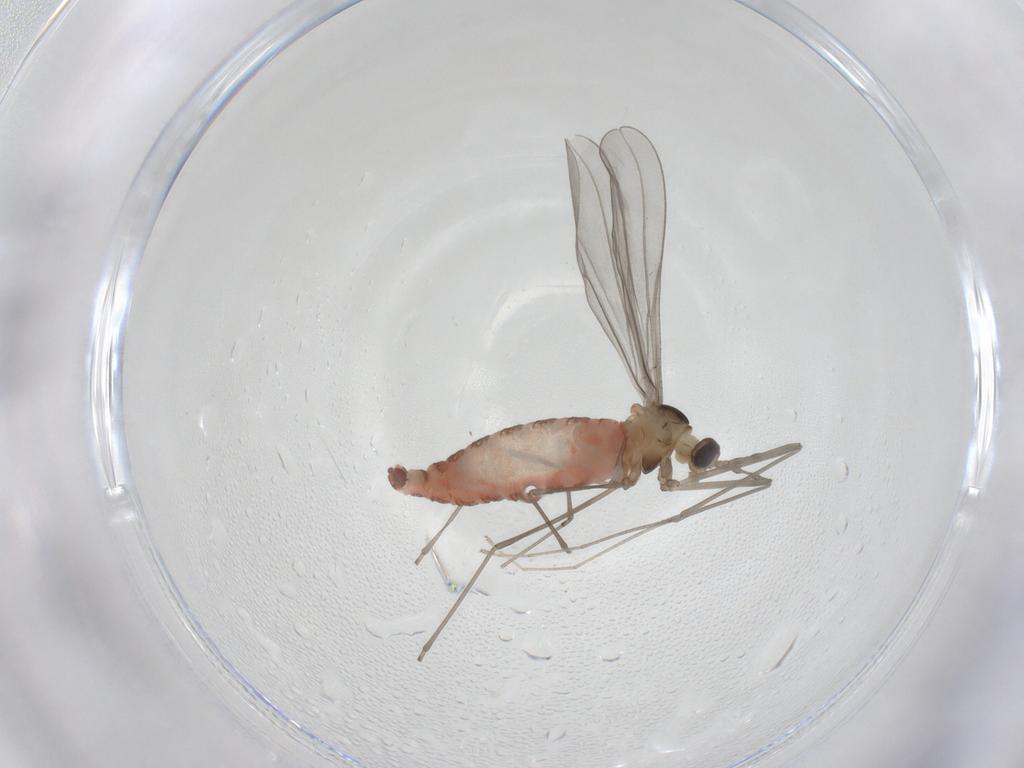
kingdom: Animalia
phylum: Arthropoda
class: Insecta
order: Diptera
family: Cecidomyiidae
